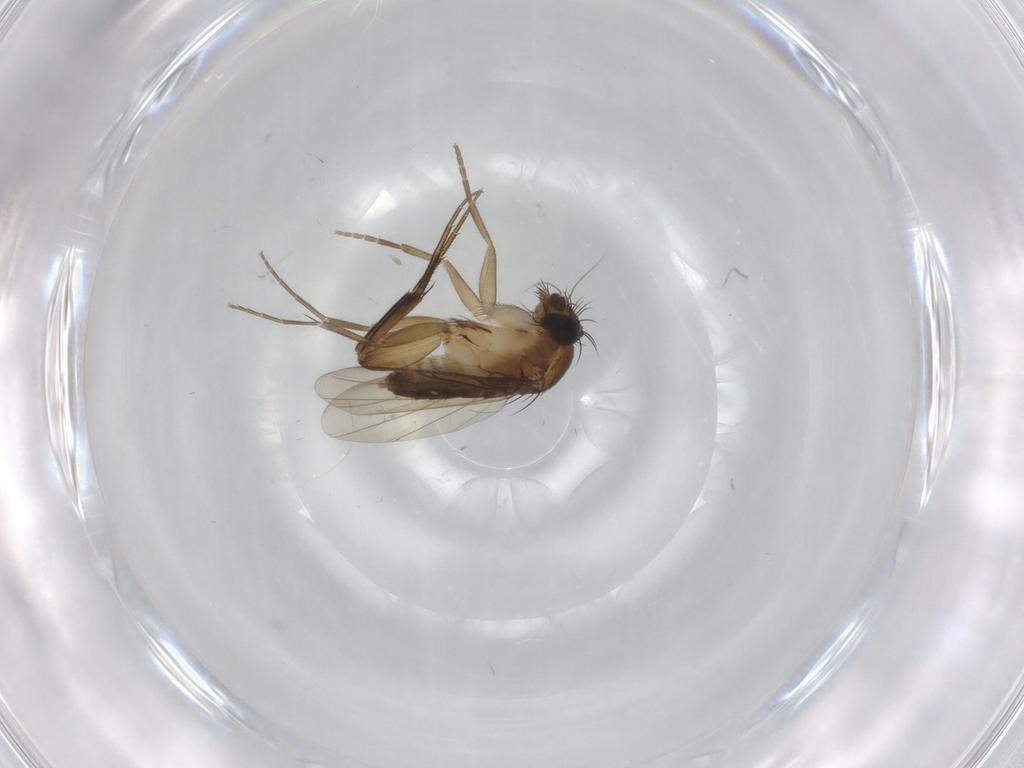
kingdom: Animalia
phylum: Arthropoda
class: Insecta
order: Diptera
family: Phoridae
